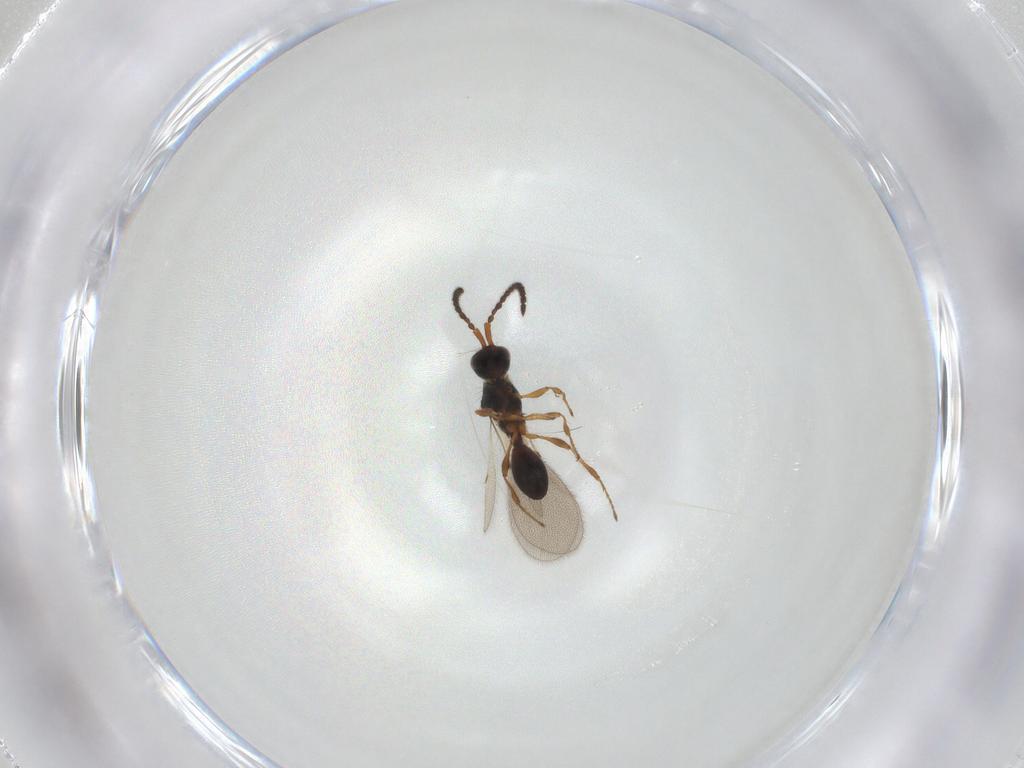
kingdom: Animalia
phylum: Arthropoda
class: Insecta
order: Hymenoptera
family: Diapriidae
